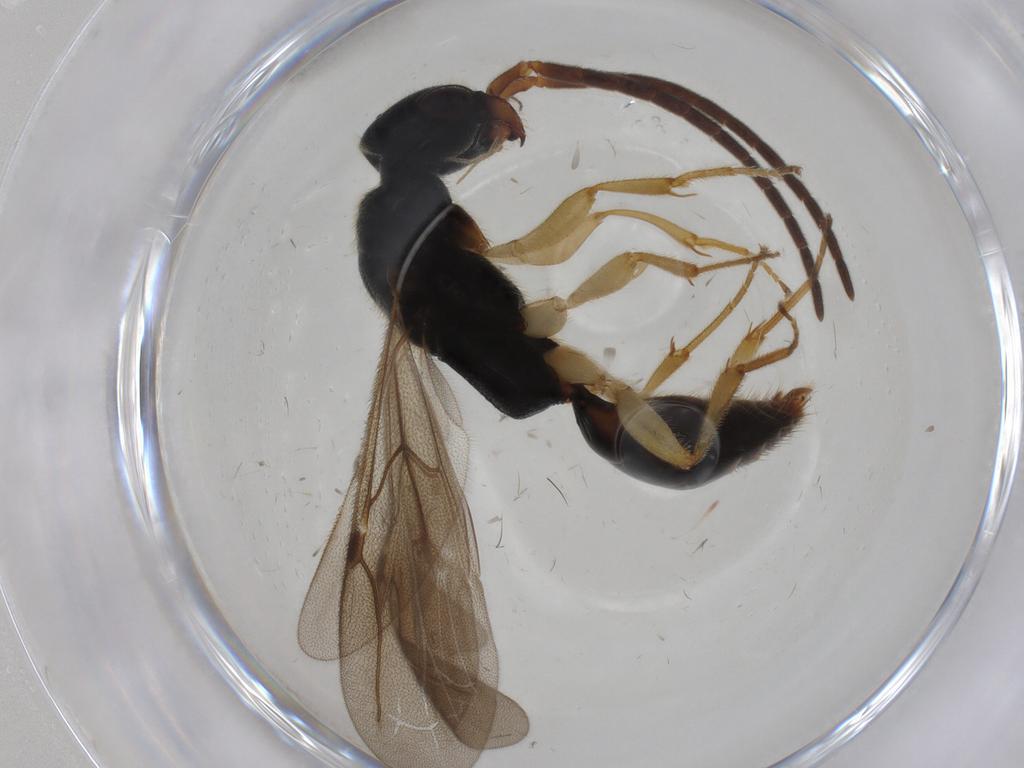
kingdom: Animalia
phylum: Arthropoda
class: Insecta
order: Hymenoptera
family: Bethylidae
